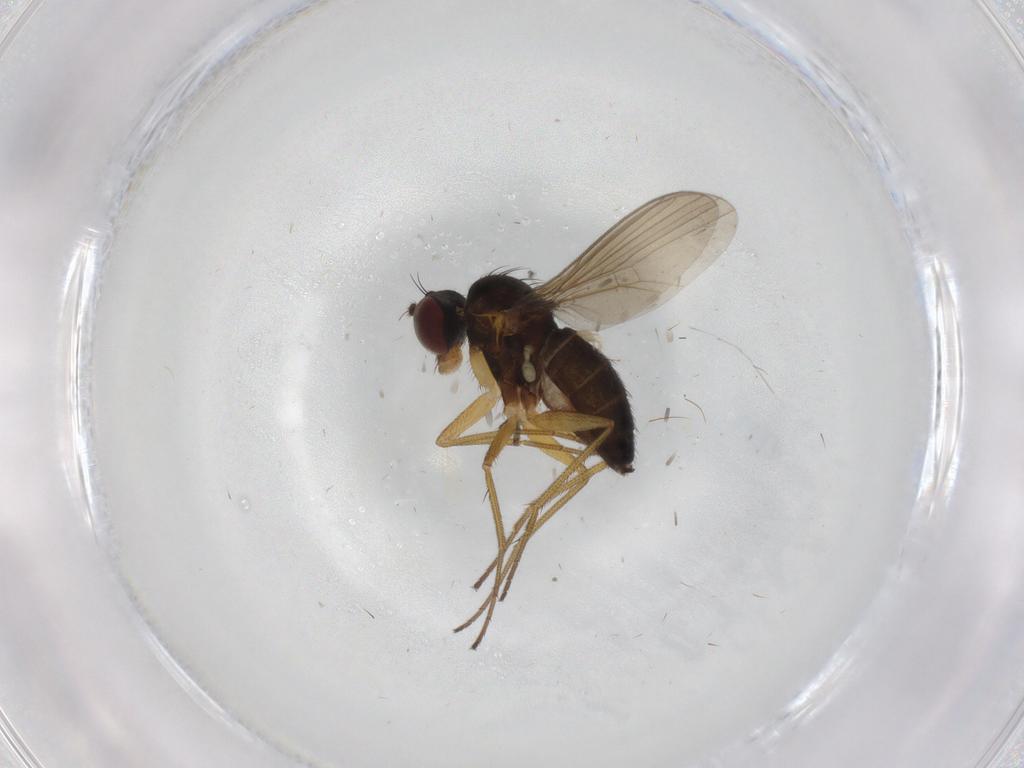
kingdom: Animalia
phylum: Arthropoda
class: Insecta
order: Diptera
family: Dolichopodidae
